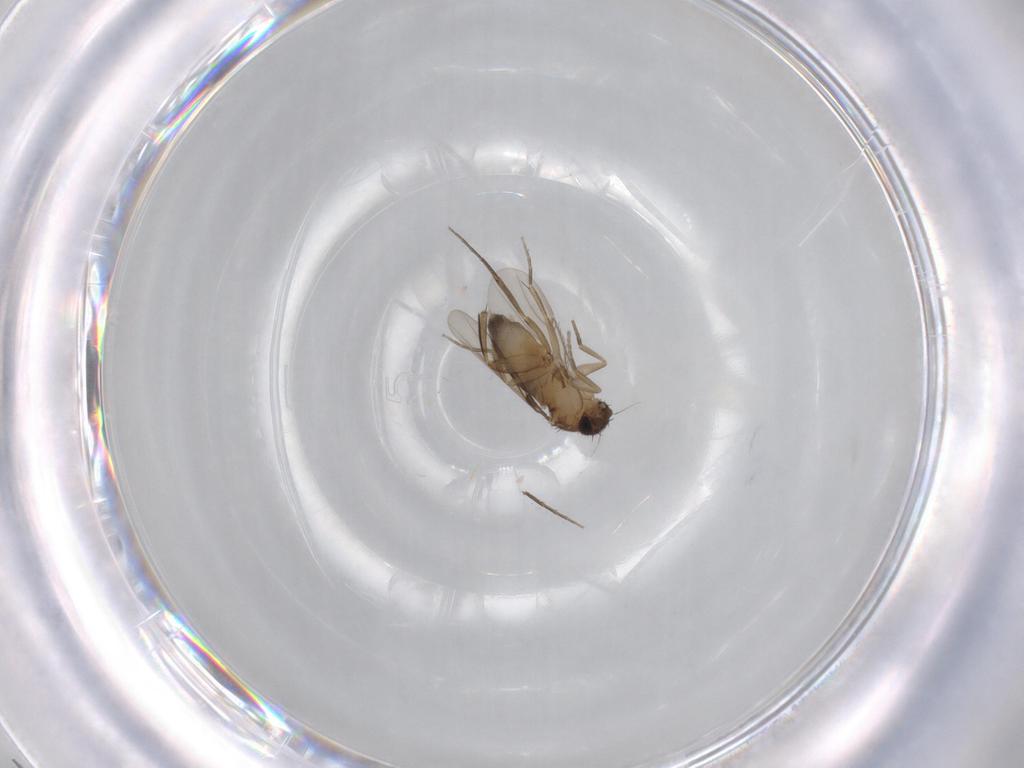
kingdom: Animalia
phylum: Arthropoda
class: Insecta
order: Diptera
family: Phoridae
